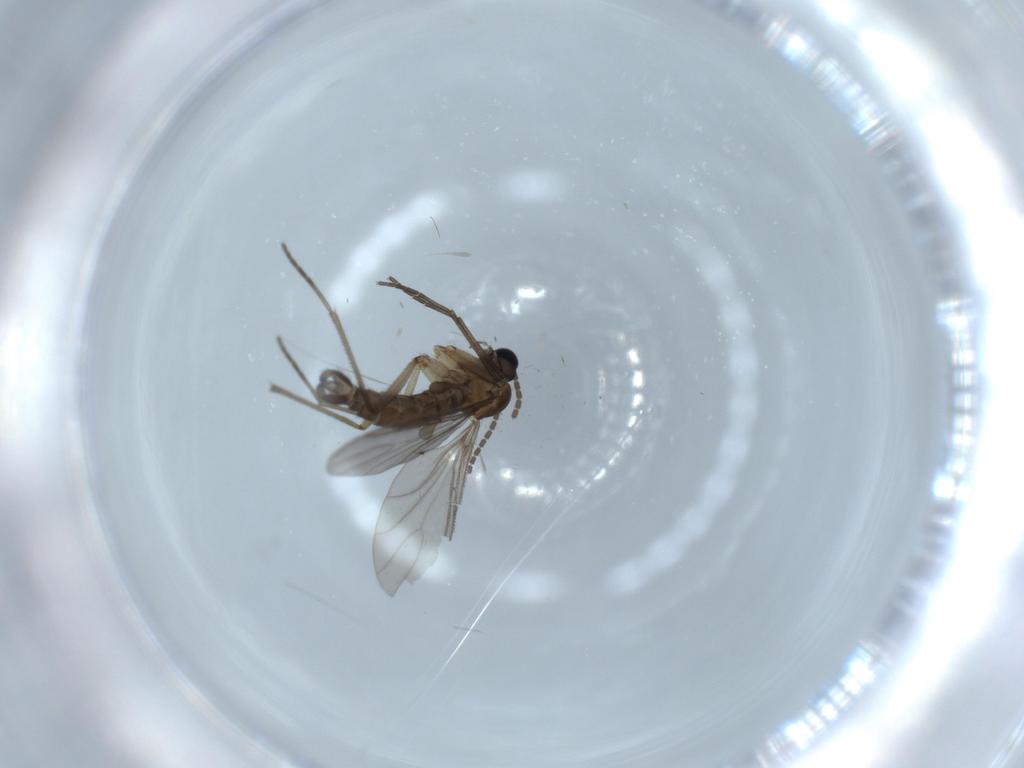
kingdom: Animalia
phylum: Arthropoda
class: Insecta
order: Diptera
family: Sciaridae
